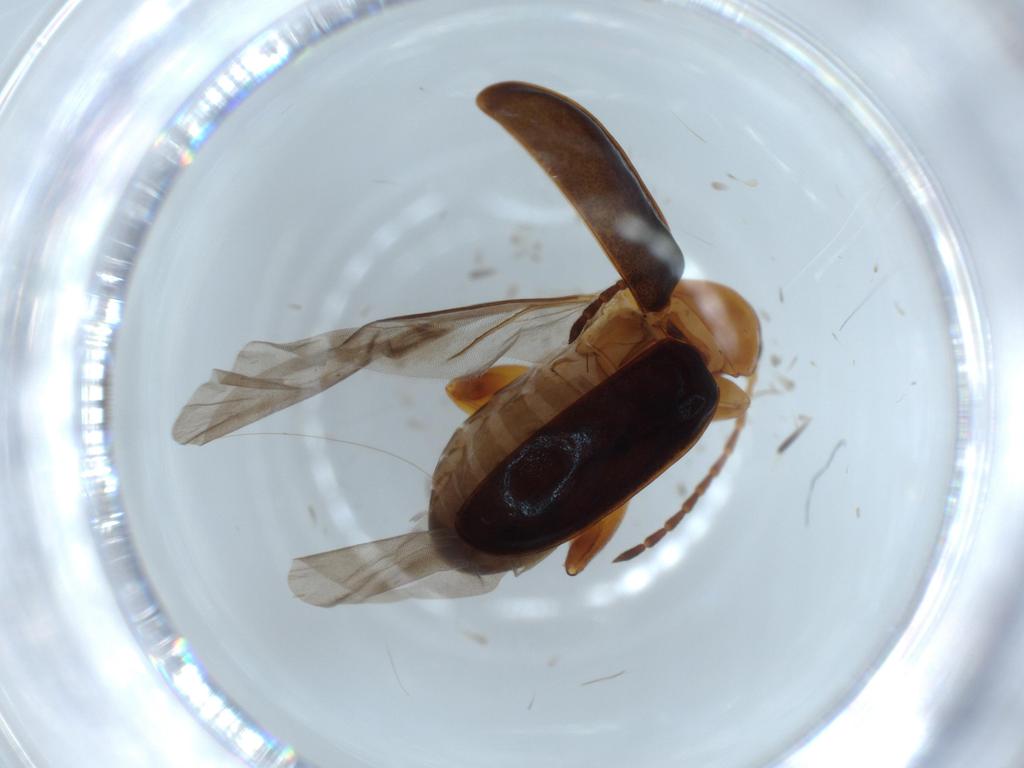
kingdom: Animalia
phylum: Arthropoda
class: Insecta
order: Coleoptera
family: Chrysomelidae
